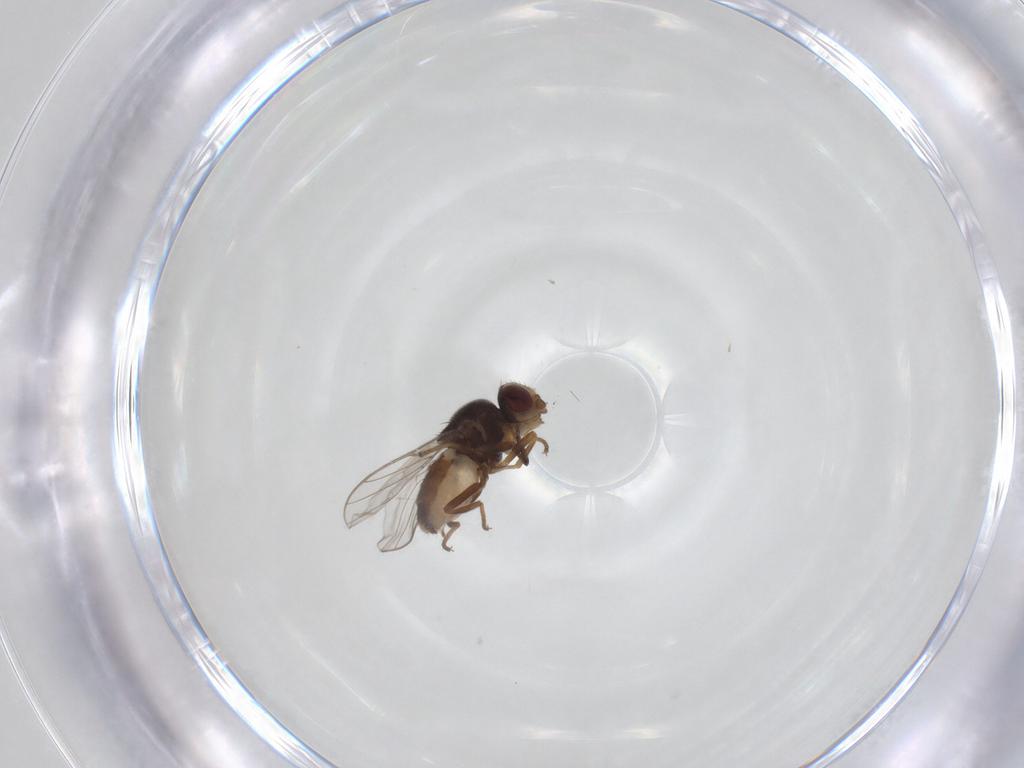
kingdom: Animalia
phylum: Arthropoda
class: Insecta
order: Diptera
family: Chloropidae
